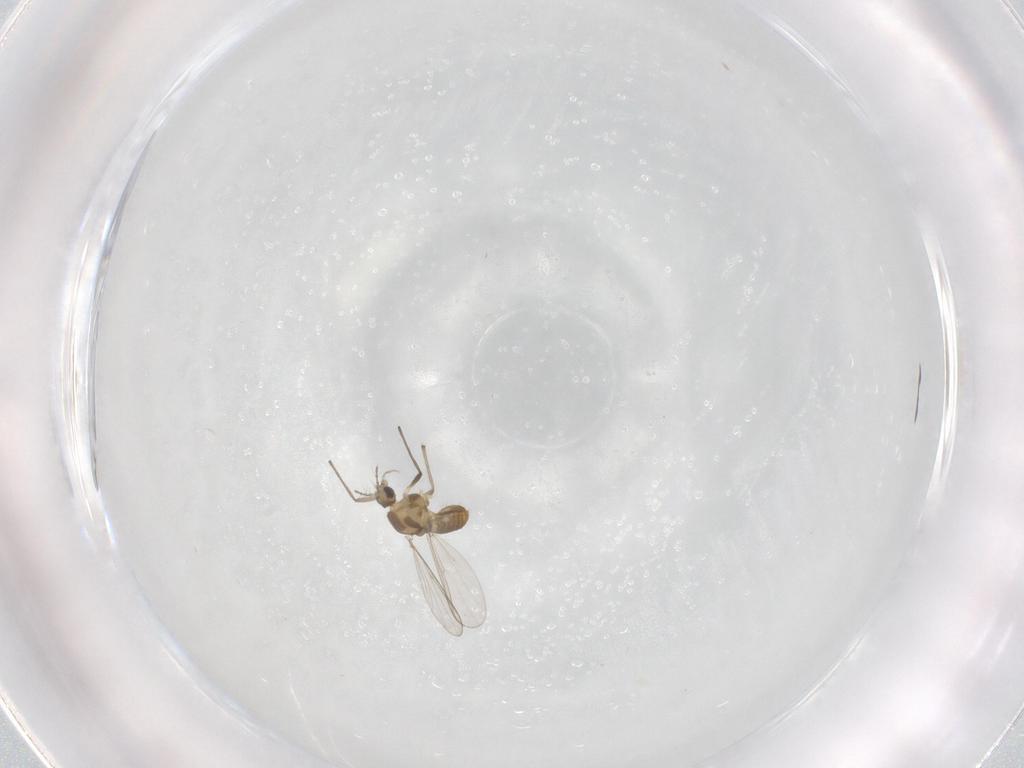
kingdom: Animalia
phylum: Arthropoda
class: Insecta
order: Diptera
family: Chironomidae
